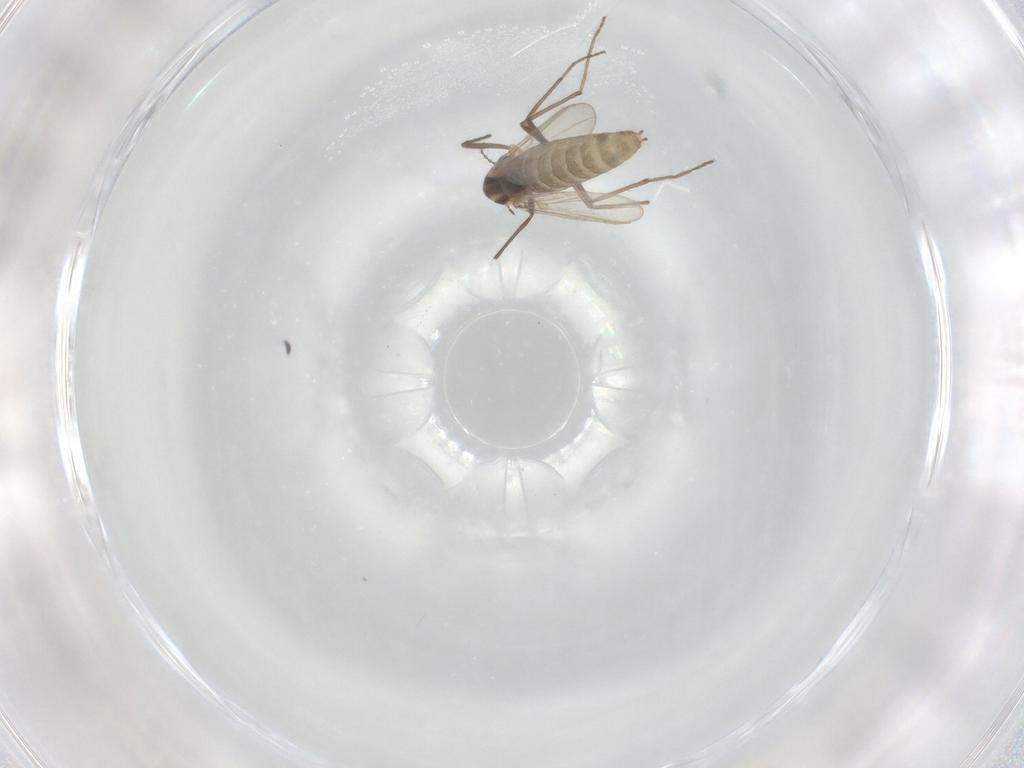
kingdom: Animalia
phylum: Arthropoda
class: Insecta
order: Diptera
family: Chironomidae
